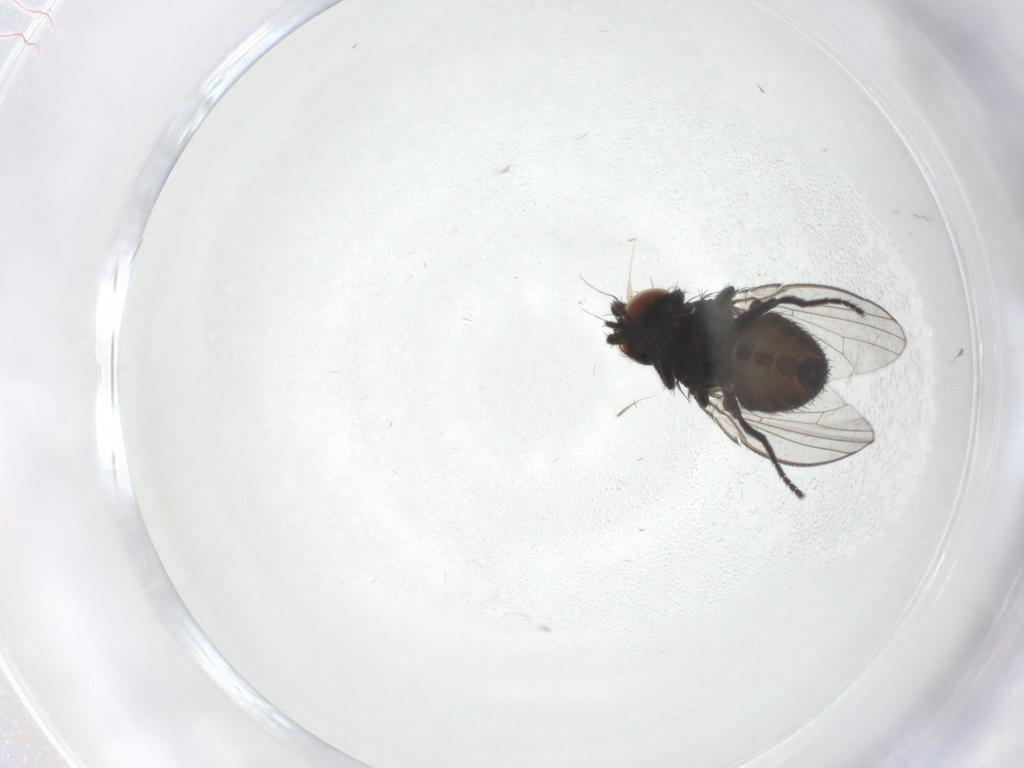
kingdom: Animalia
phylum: Arthropoda
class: Insecta
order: Diptera
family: Milichiidae
